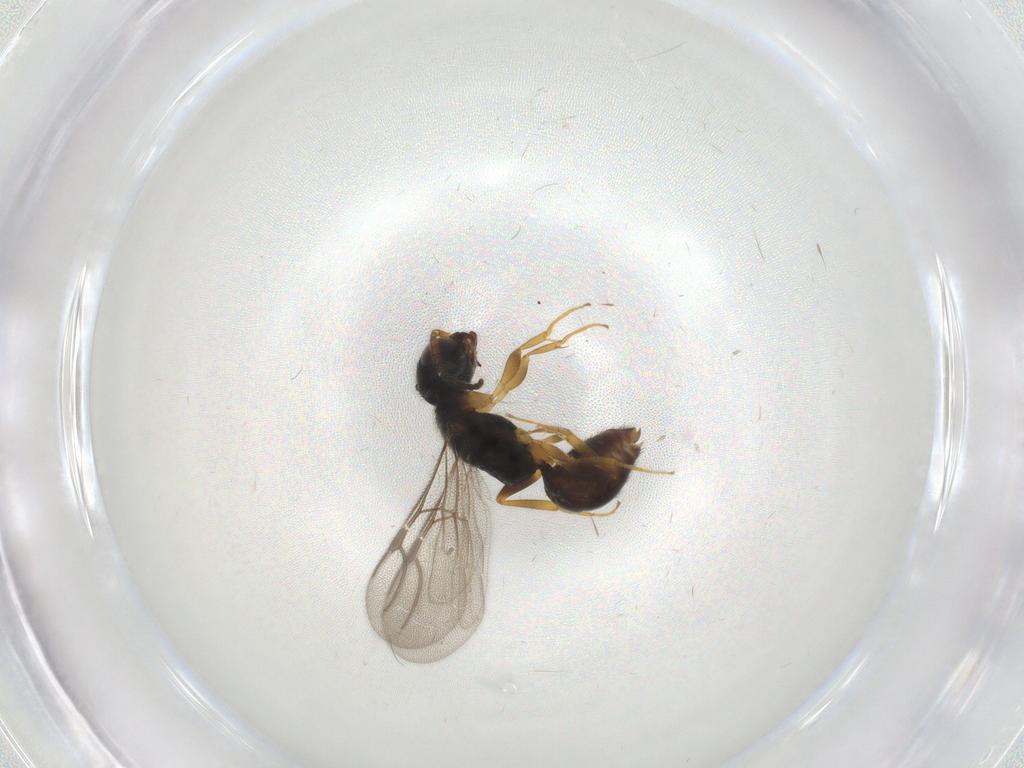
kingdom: Animalia
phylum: Arthropoda
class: Insecta
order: Hymenoptera
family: Bethylidae
